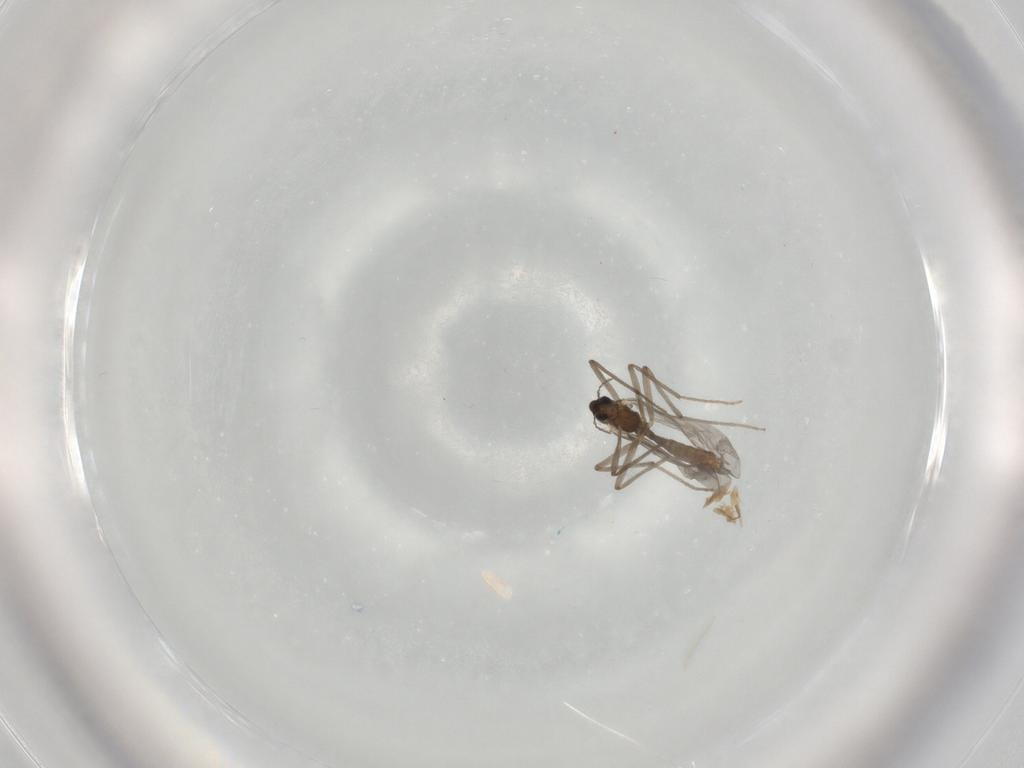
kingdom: Animalia
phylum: Arthropoda
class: Insecta
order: Diptera
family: Chironomidae
